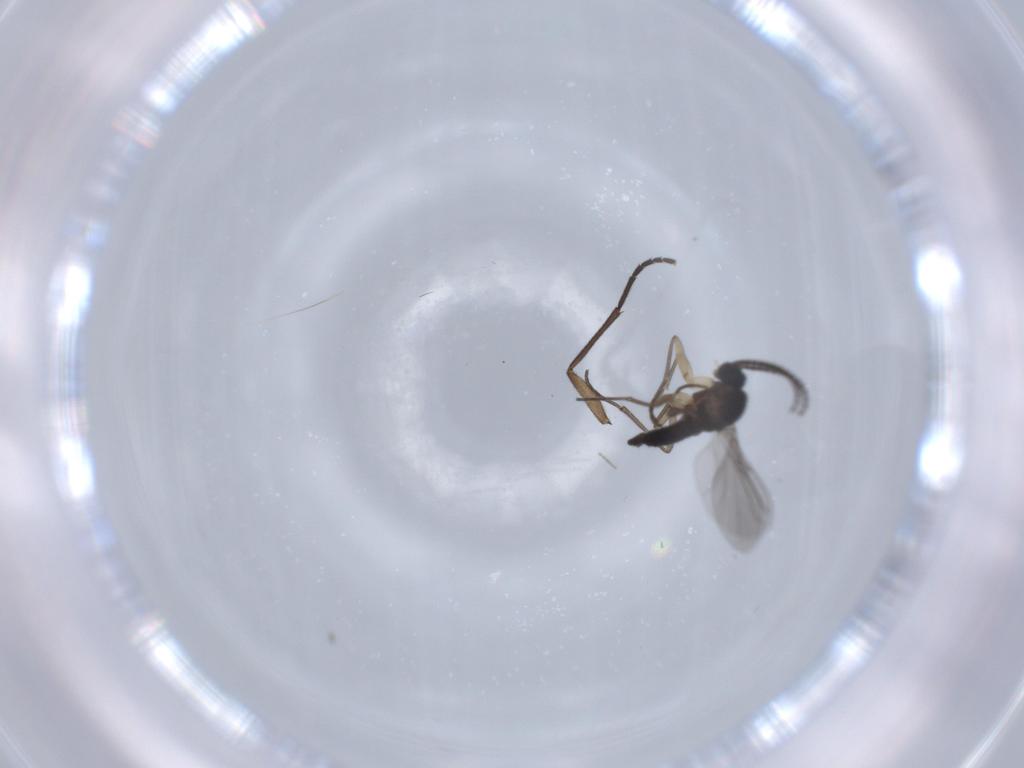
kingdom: Animalia
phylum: Arthropoda
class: Insecta
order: Diptera
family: Sciaridae
